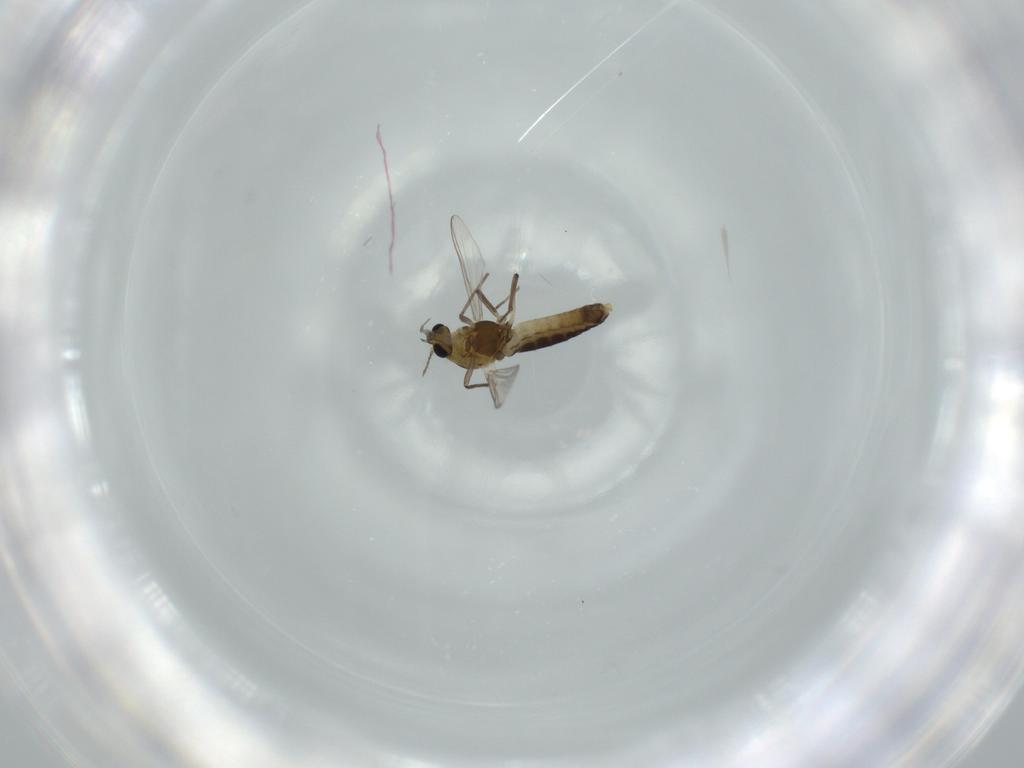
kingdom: Animalia
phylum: Arthropoda
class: Insecta
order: Diptera
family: Chironomidae
